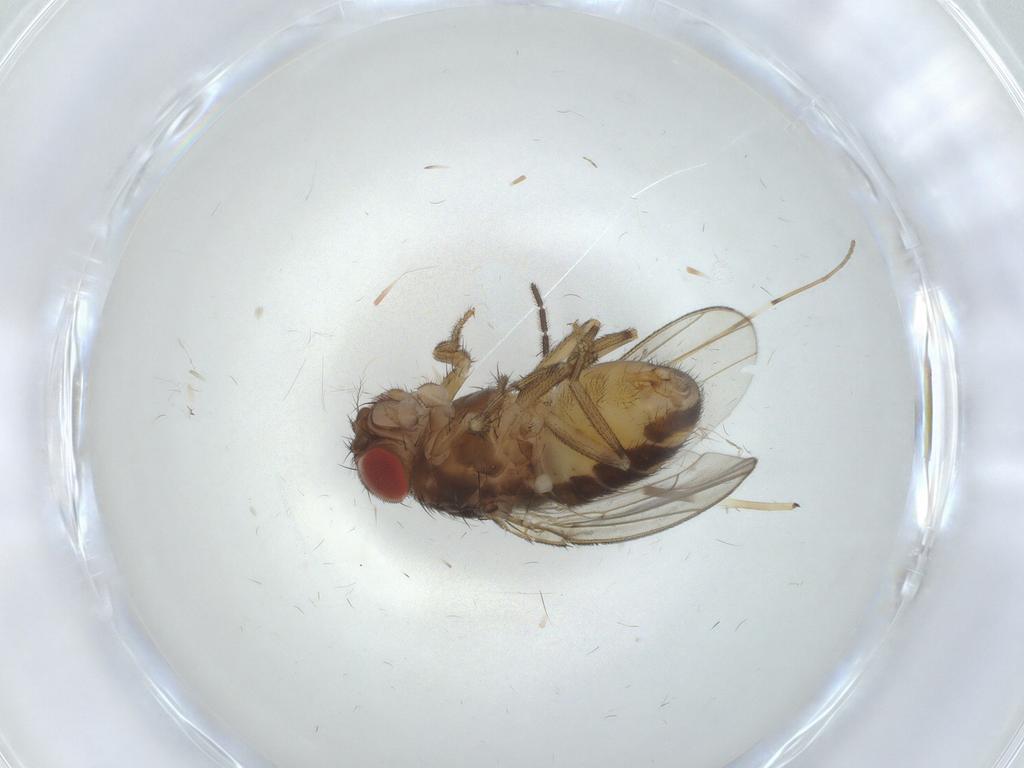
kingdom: Animalia
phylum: Arthropoda
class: Insecta
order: Diptera
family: Drosophilidae
